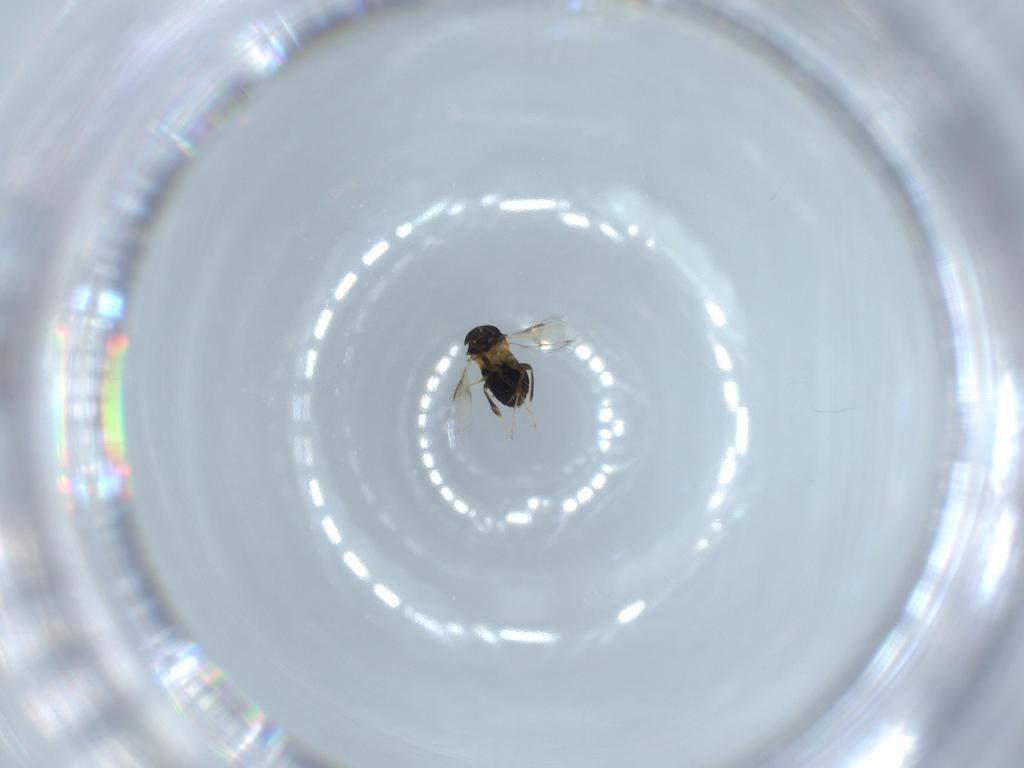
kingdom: Animalia
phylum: Arthropoda
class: Insecta
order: Hymenoptera
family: Signiphoridae
